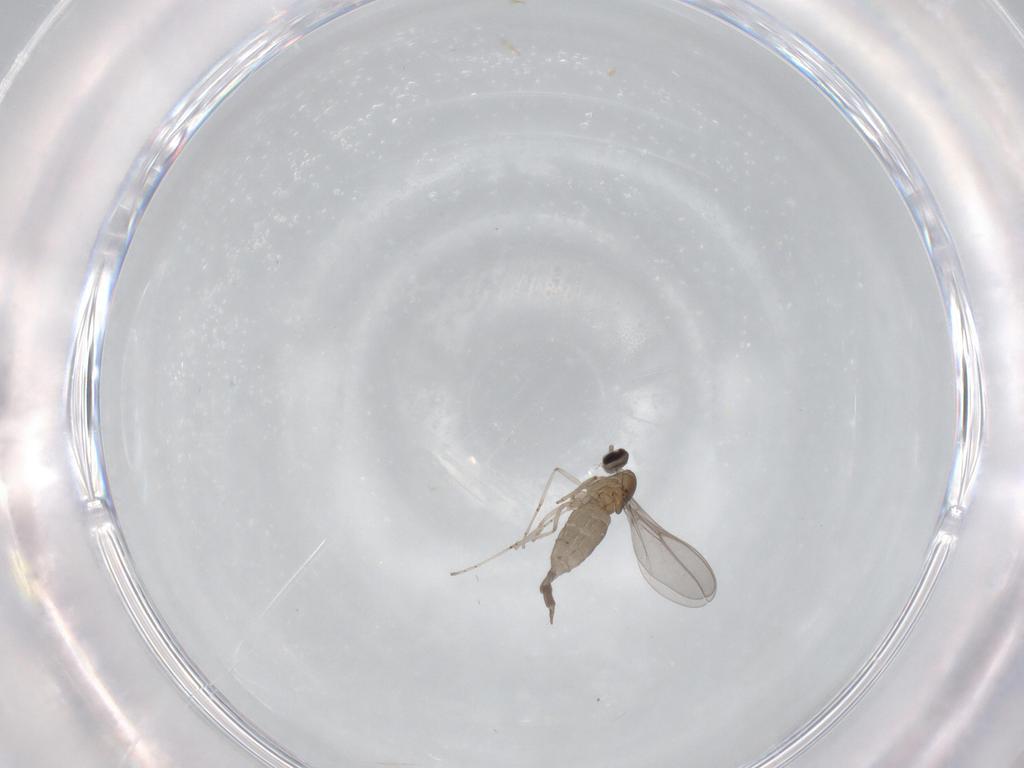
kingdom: Animalia
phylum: Arthropoda
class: Insecta
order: Diptera
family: Cecidomyiidae
